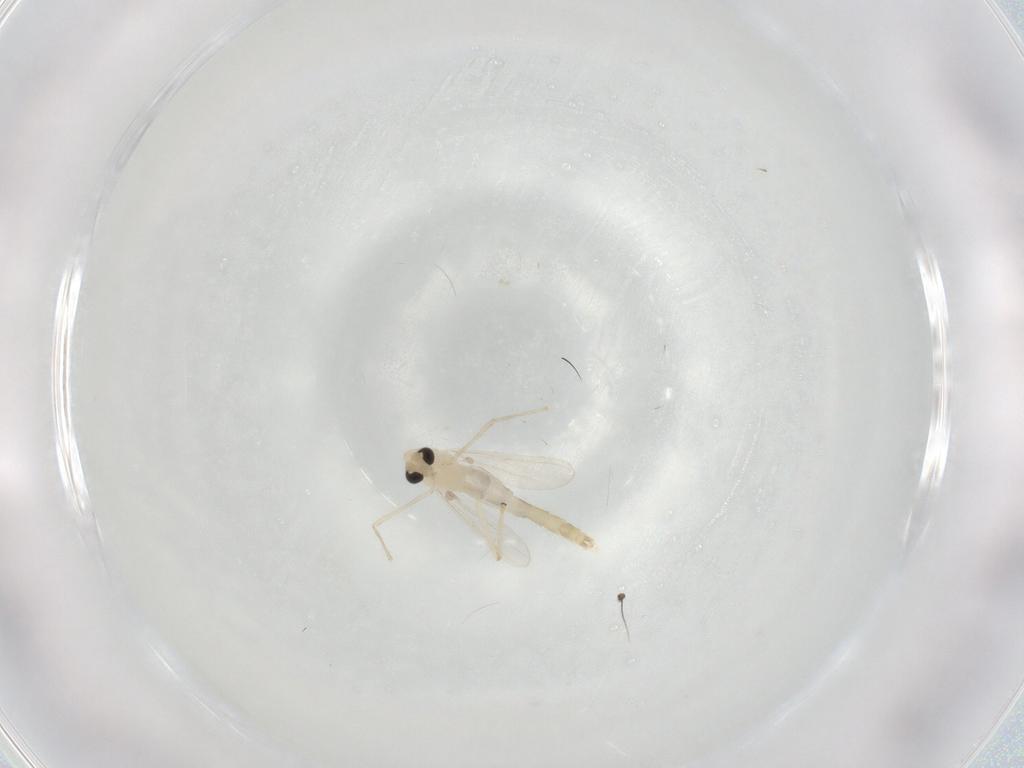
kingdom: Animalia
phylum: Arthropoda
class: Insecta
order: Diptera
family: Chironomidae
